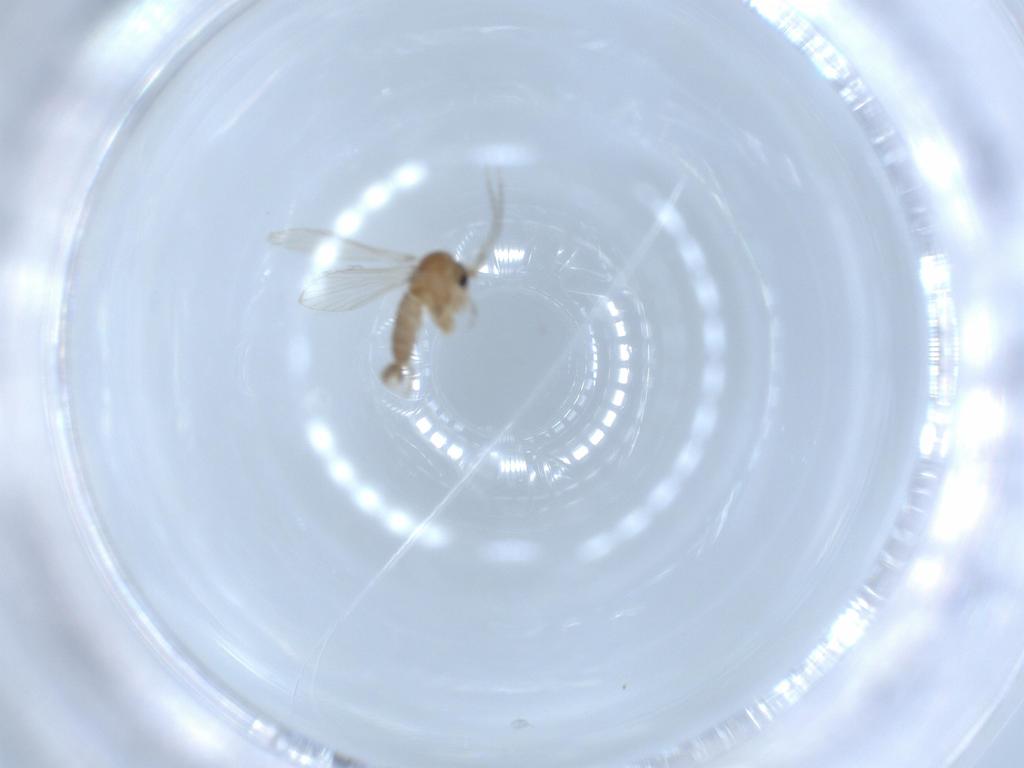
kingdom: Animalia
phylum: Arthropoda
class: Insecta
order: Diptera
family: Psychodidae
